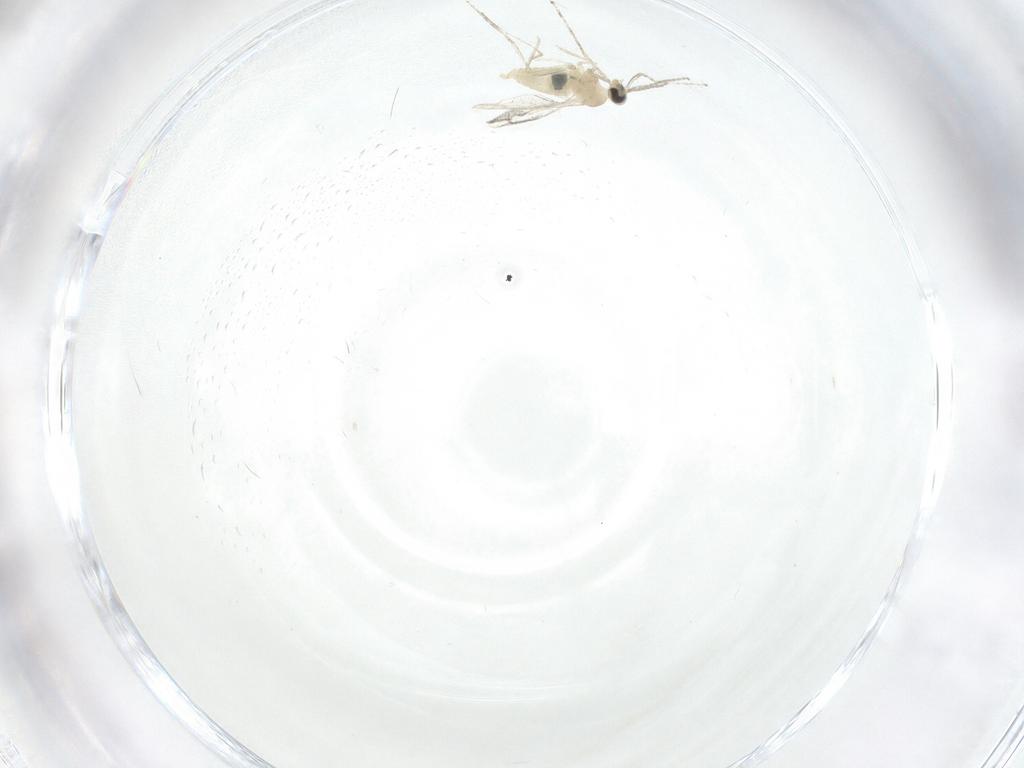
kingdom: Animalia
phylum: Arthropoda
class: Insecta
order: Diptera
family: Cecidomyiidae
